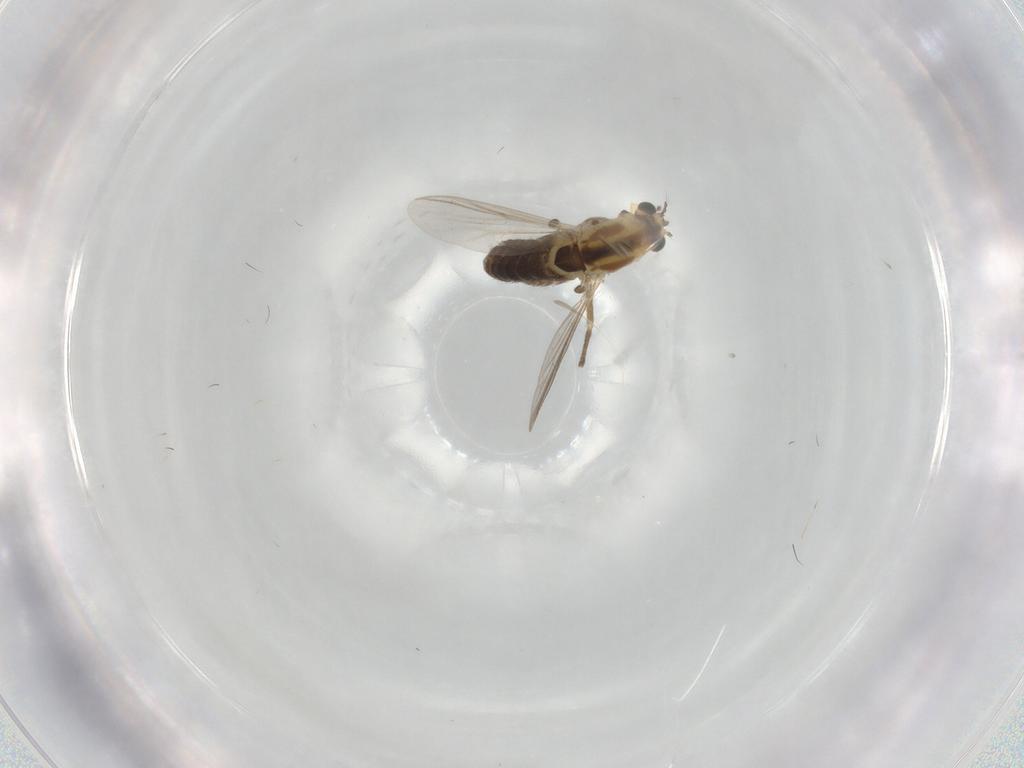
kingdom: Animalia
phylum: Arthropoda
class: Insecta
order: Diptera
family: Chironomidae
